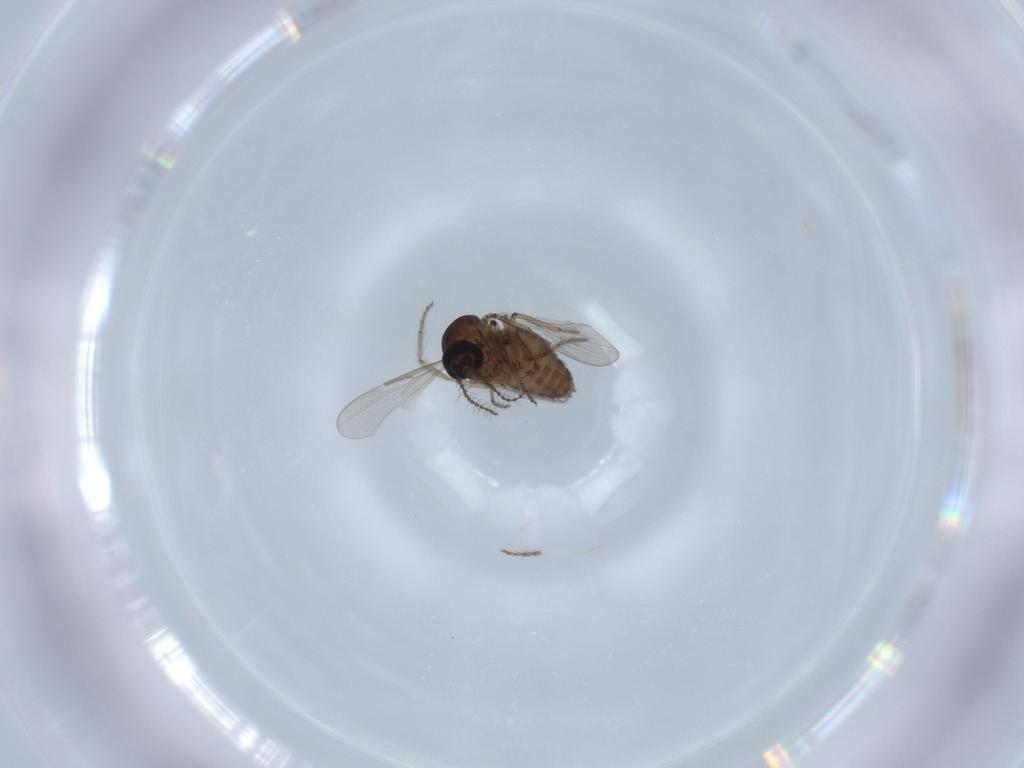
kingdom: Animalia
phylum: Arthropoda
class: Insecta
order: Diptera
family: Ceratopogonidae
